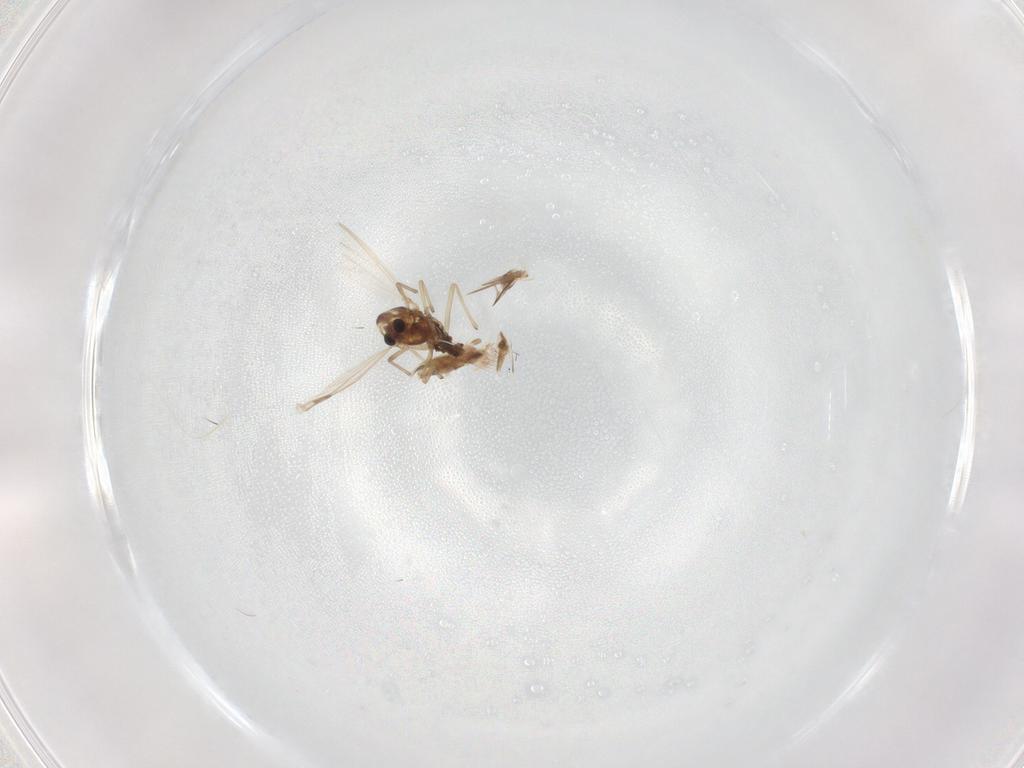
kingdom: Animalia
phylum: Arthropoda
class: Insecta
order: Diptera
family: Chironomidae
